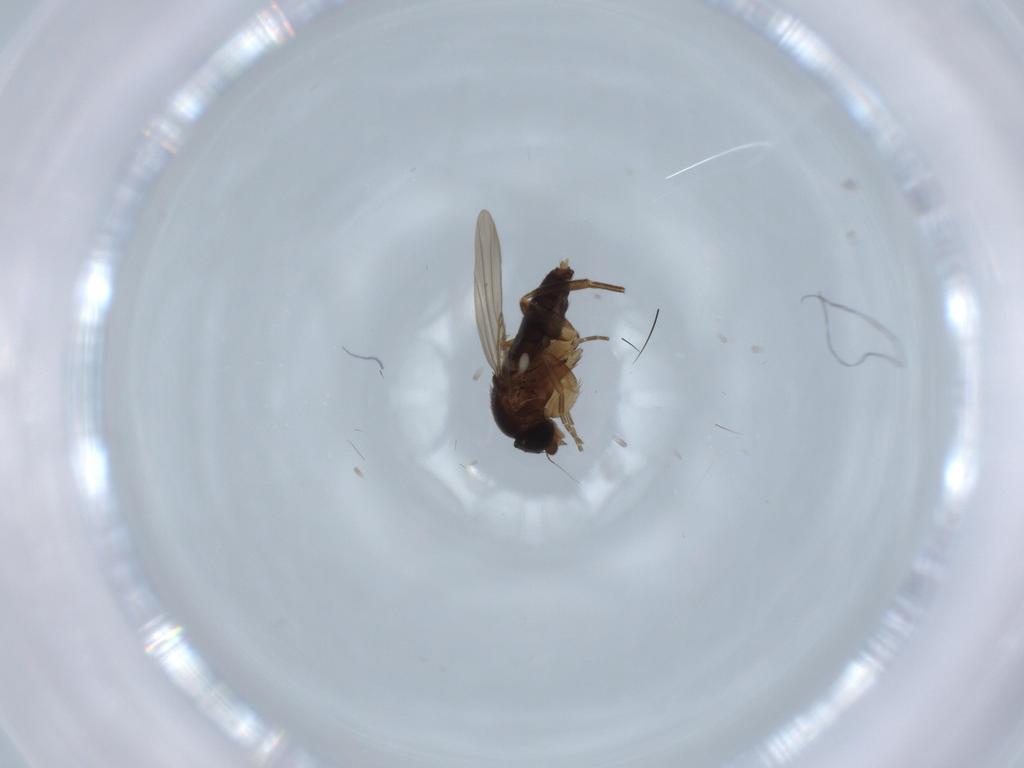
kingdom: Animalia
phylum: Arthropoda
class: Insecta
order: Diptera
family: Phoridae
